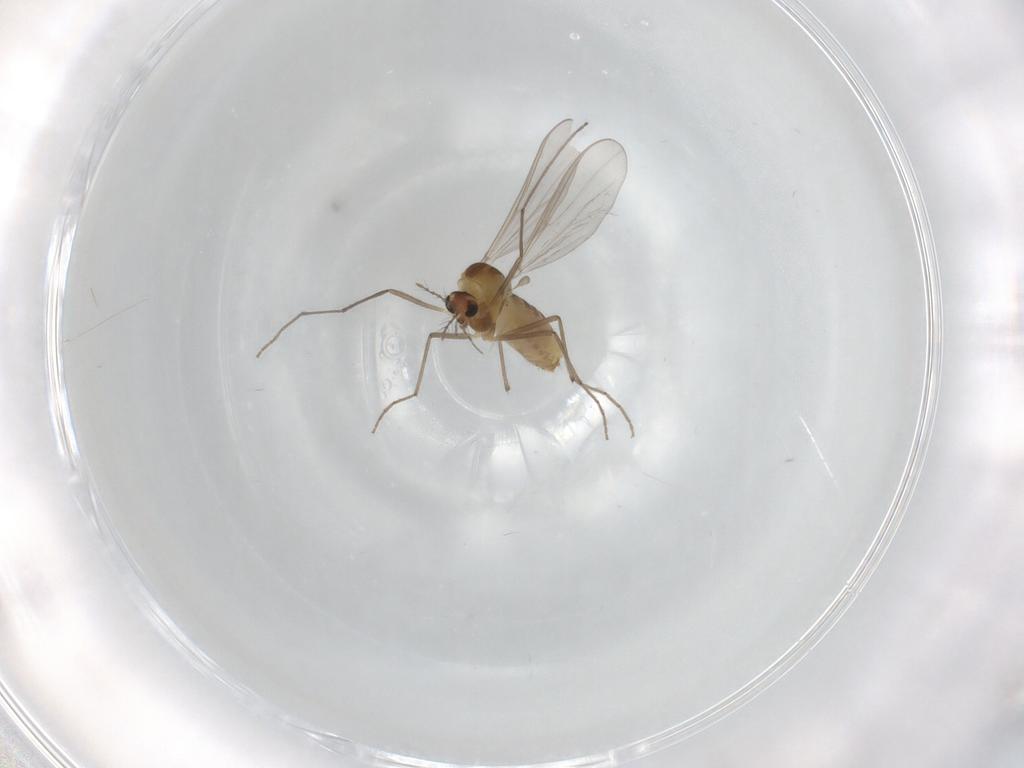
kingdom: Animalia
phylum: Arthropoda
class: Insecta
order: Diptera
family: Chironomidae
